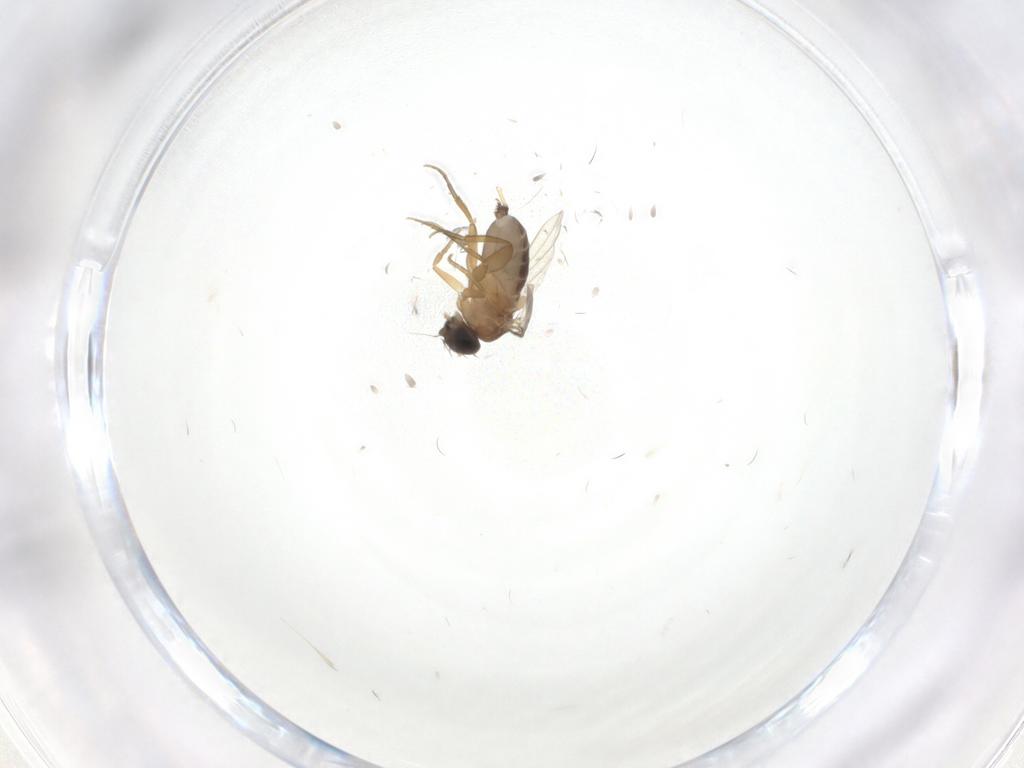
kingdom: Animalia
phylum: Arthropoda
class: Insecta
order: Diptera
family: Phoridae
